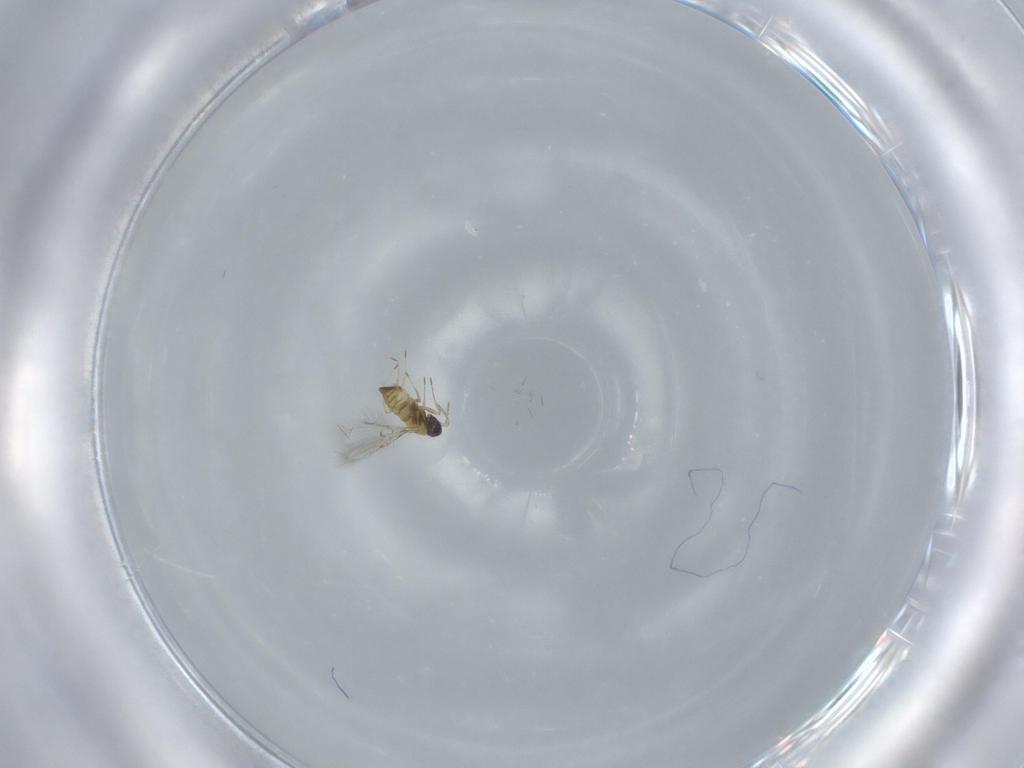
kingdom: Animalia
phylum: Arthropoda
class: Insecta
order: Hymenoptera
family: Trichogrammatidae
